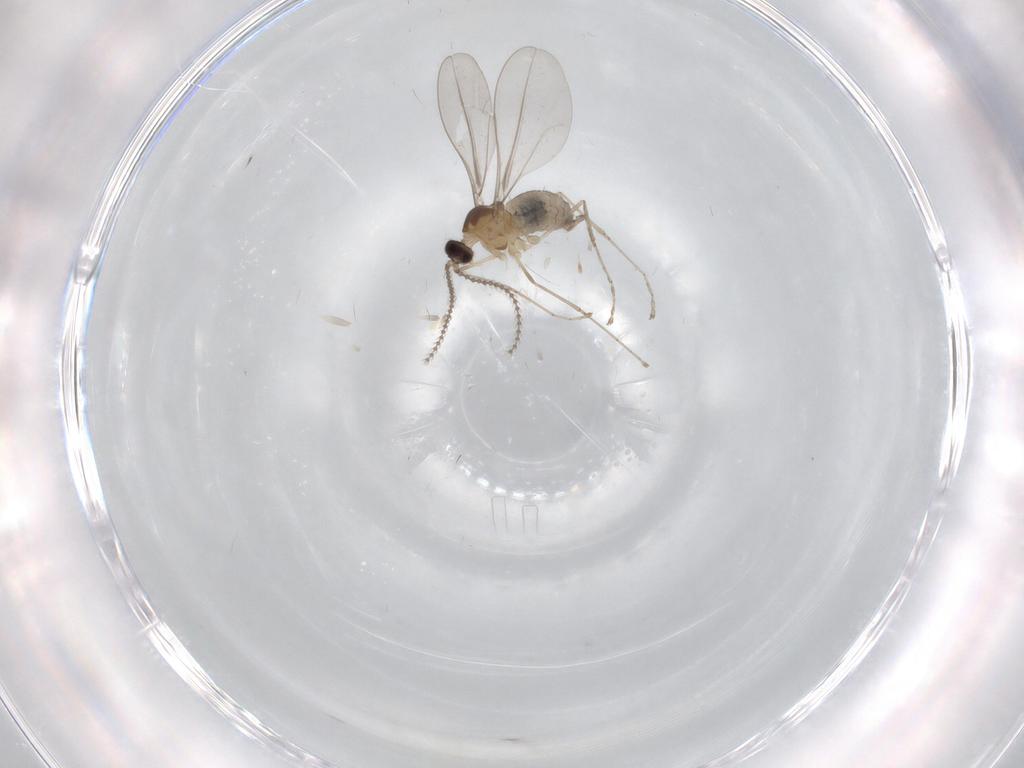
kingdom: Animalia
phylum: Arthropoda
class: Insecta
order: Diptera
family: Cecidomyiidae
